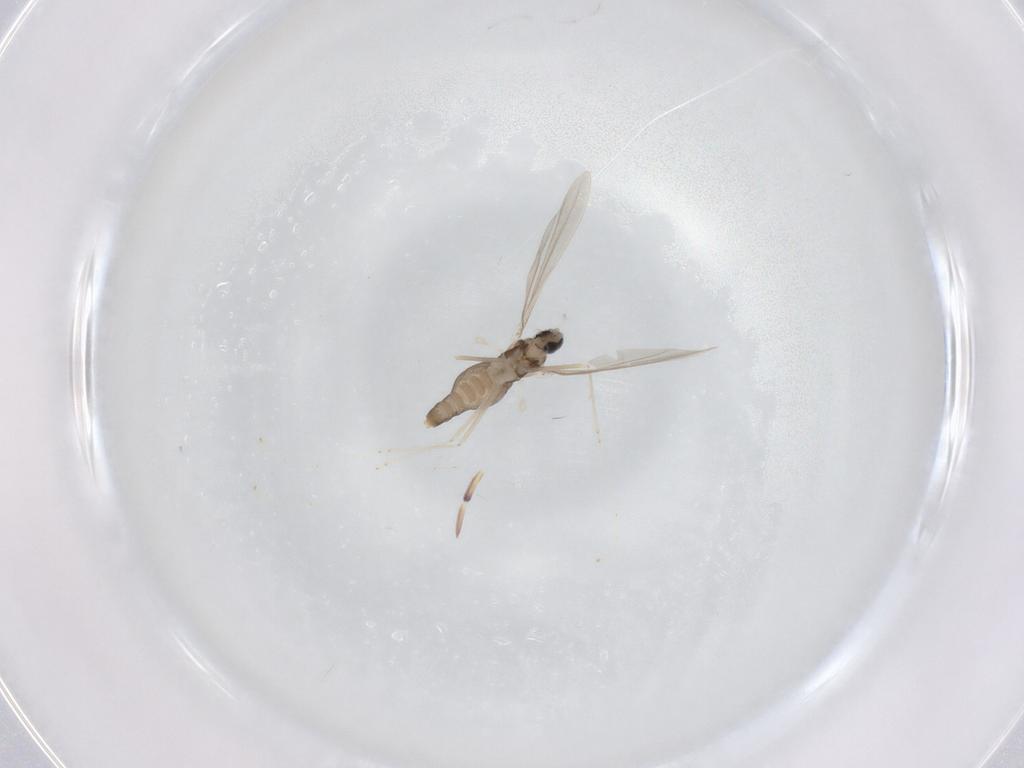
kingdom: Animalia
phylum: Arthropoda
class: Insecta
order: Diptera
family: Cecidomyiidae
